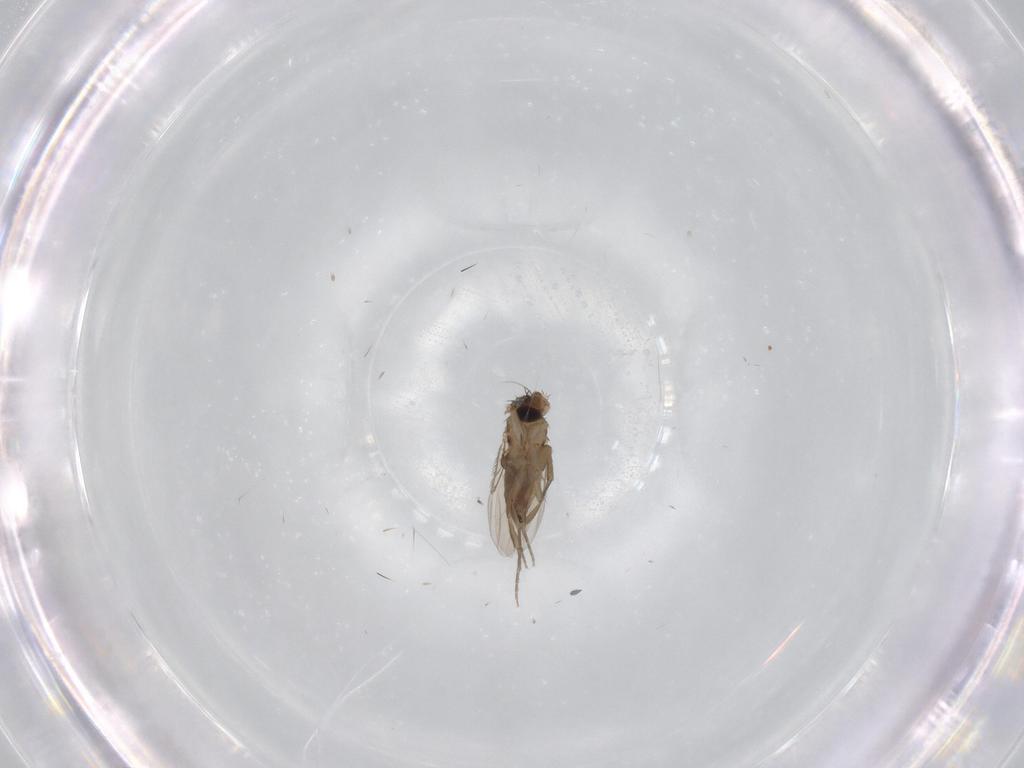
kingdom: Animalia
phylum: Arthropoda
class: Insecta
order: Diptera
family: Phoridae
